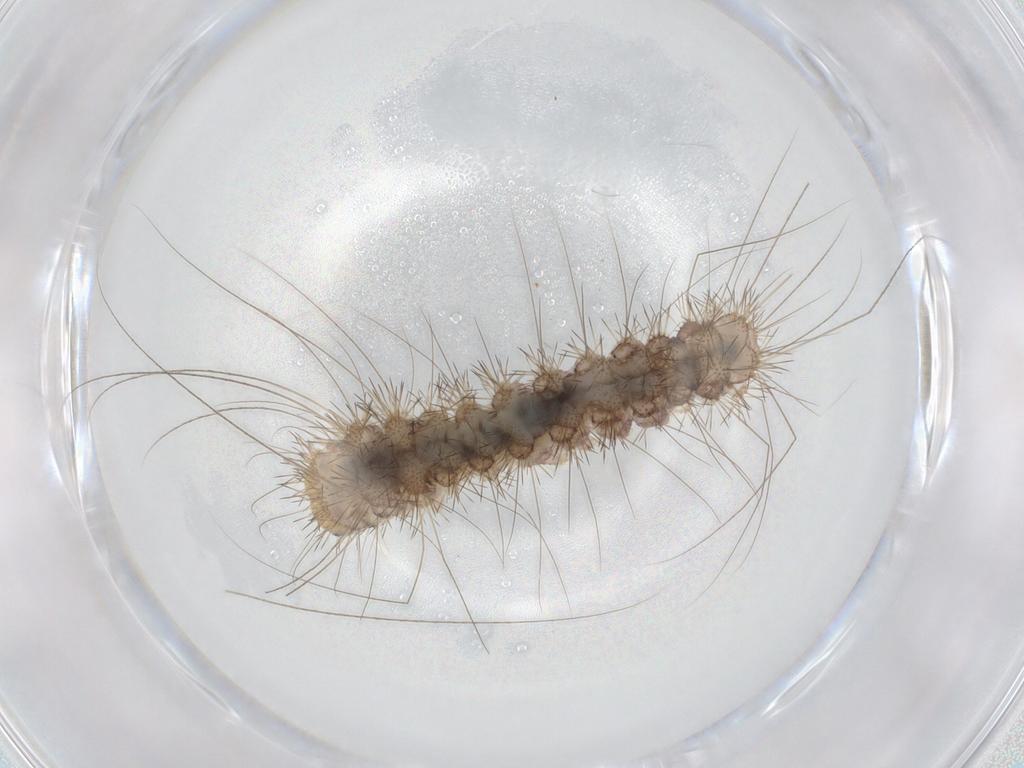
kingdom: Animalia
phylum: Arthropoda
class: Insecta
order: Lepidoptera
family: Erebidae
